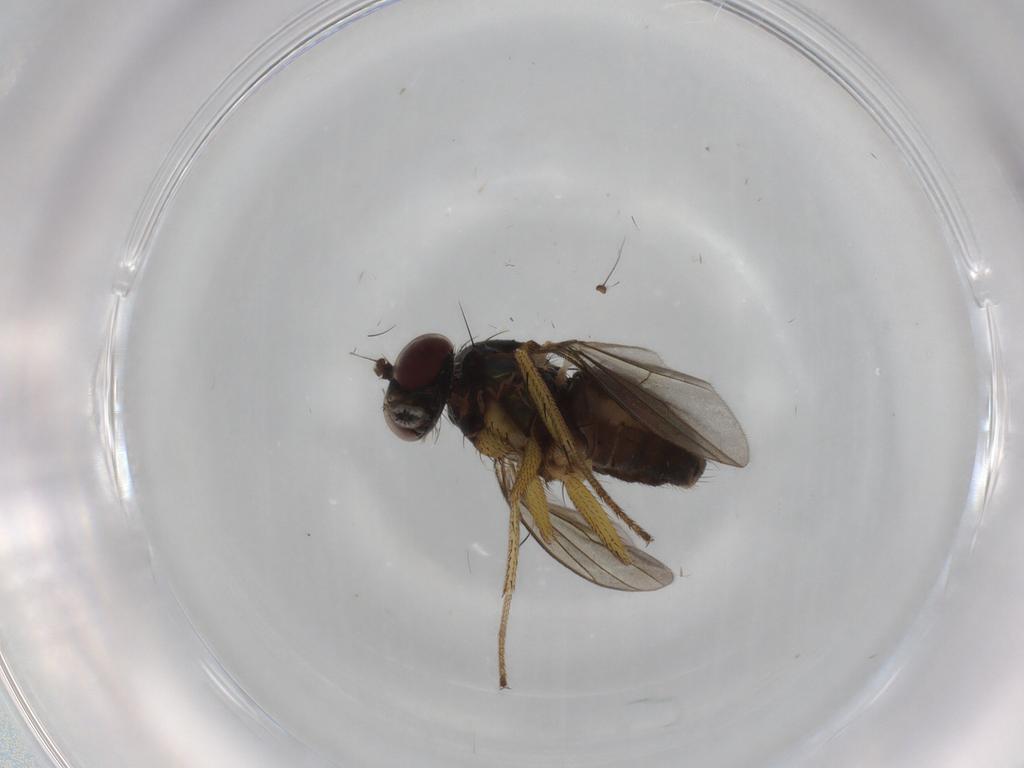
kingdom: Animalia
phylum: Arthropoda
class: Insecta
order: Diptera
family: Dolichopodidae
